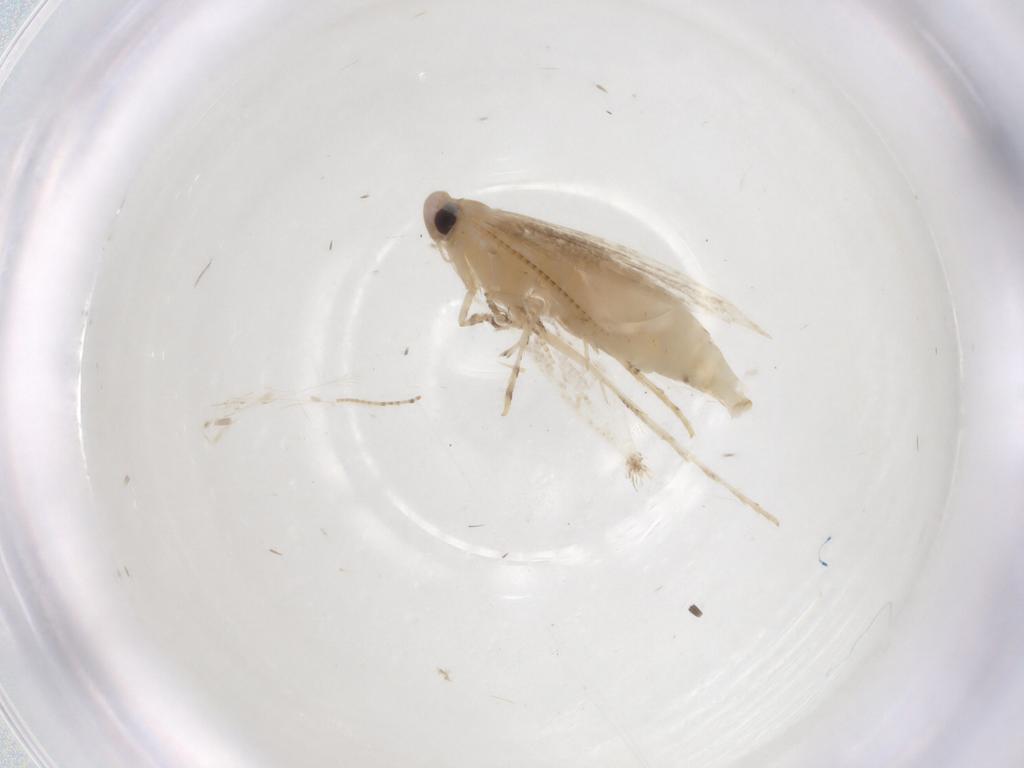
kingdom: Animalia
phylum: Arthropoda
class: Insecta
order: Lepidoptera
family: Gracillariidae
